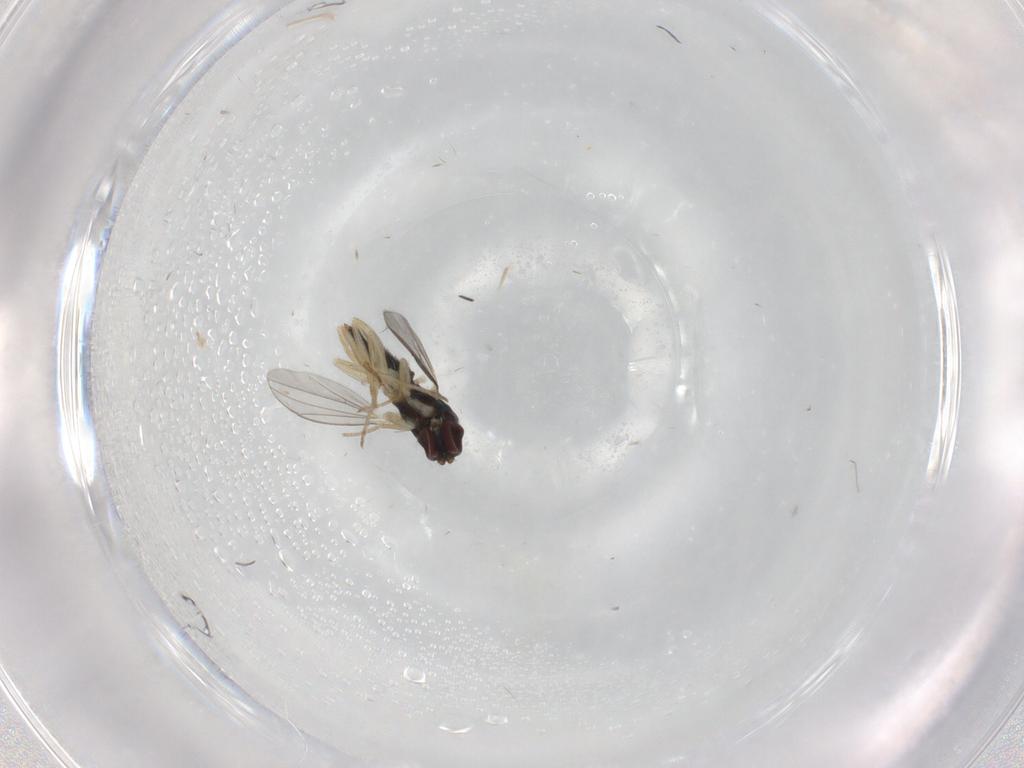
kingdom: Animalia
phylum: Arthropoda
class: Insecta
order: Diptera
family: Dolichopodidae
